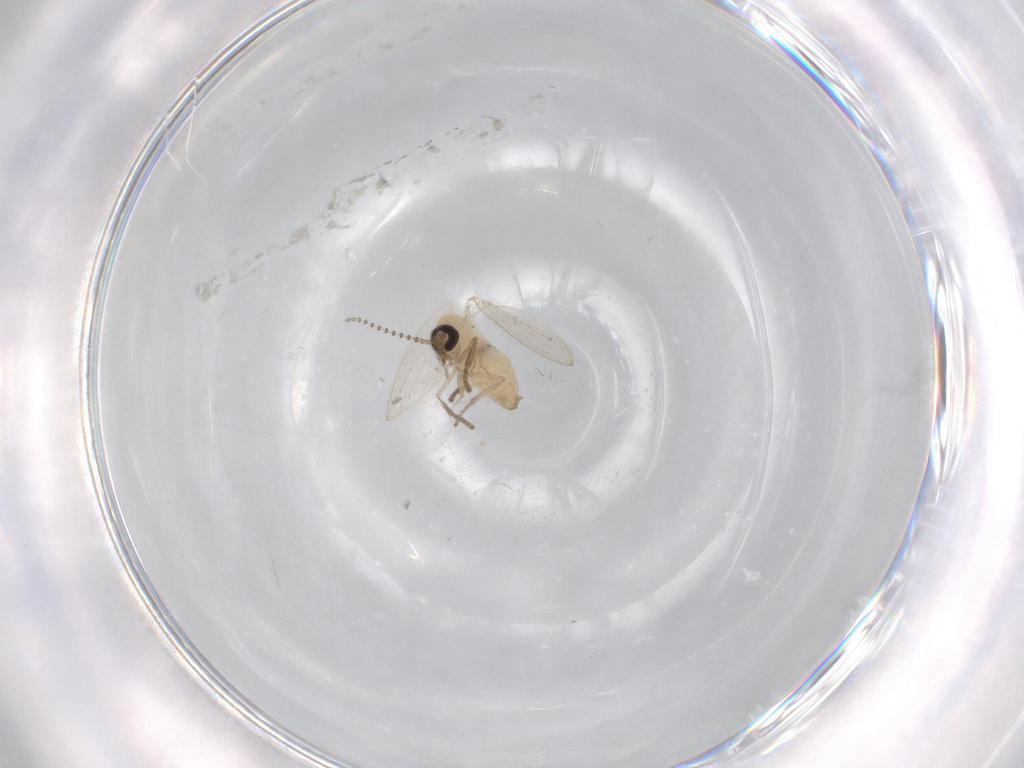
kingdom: Animalia
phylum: Arthropoda
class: Insecta
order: Diptera
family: Psychodidae
